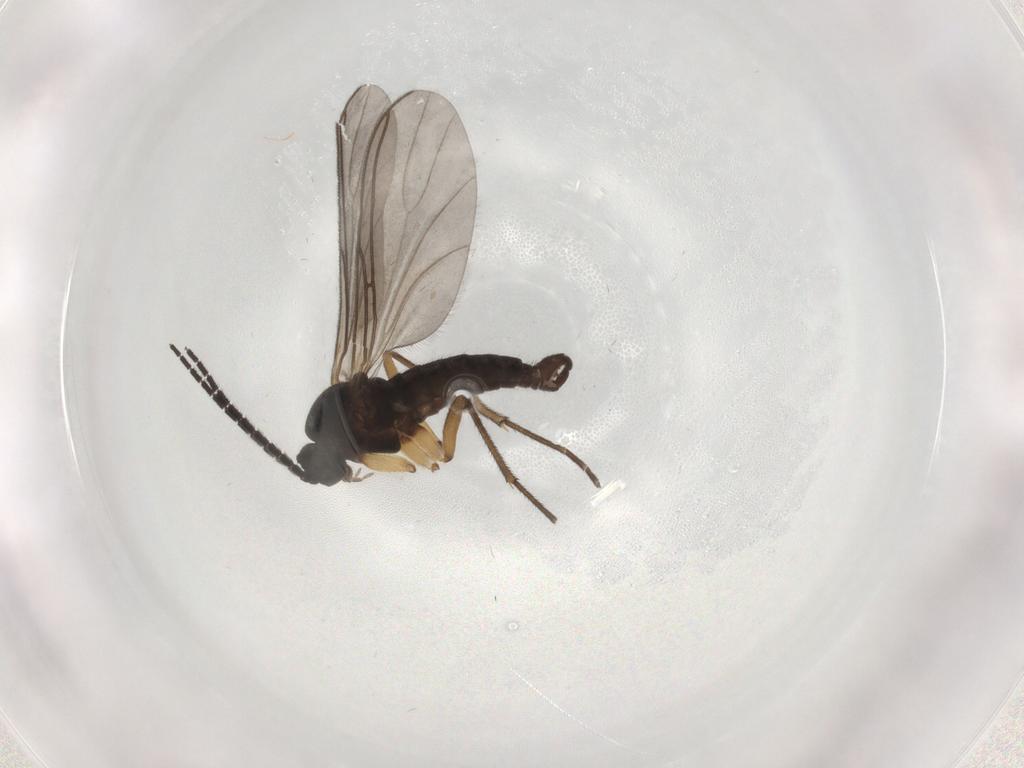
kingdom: Animalia
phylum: Arthropoda
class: Insecta
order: Diptera
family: Sciaridae
